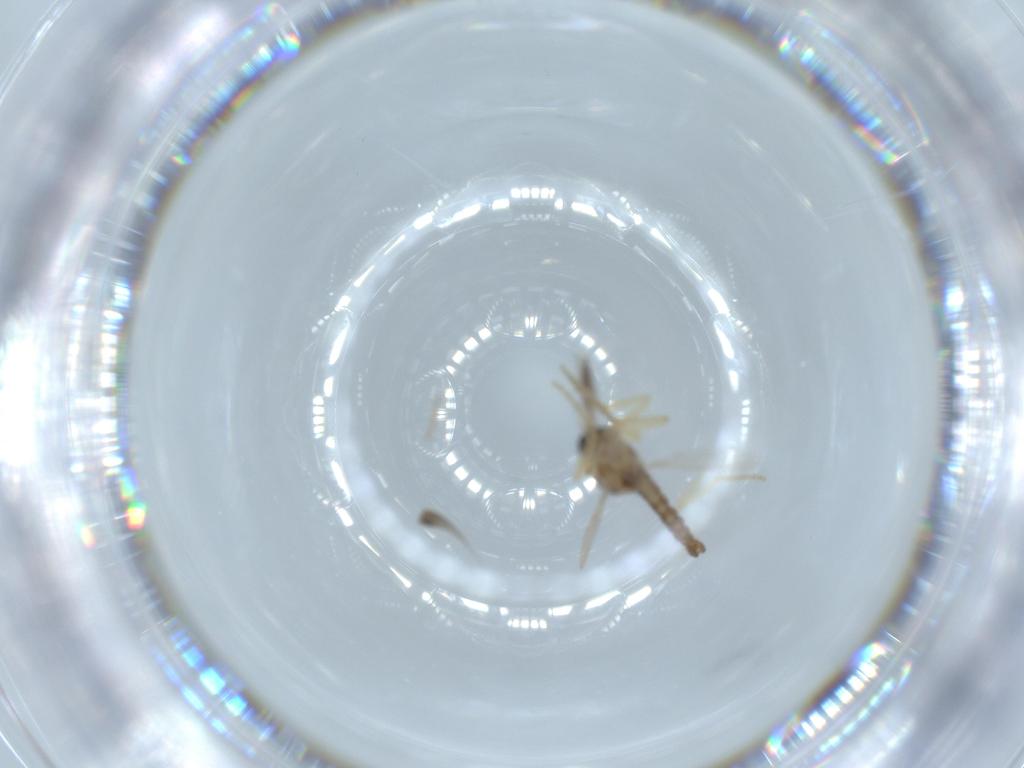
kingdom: Animalia
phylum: Arthropoda
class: Insecta
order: Diptera
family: Ceratopogonidae
